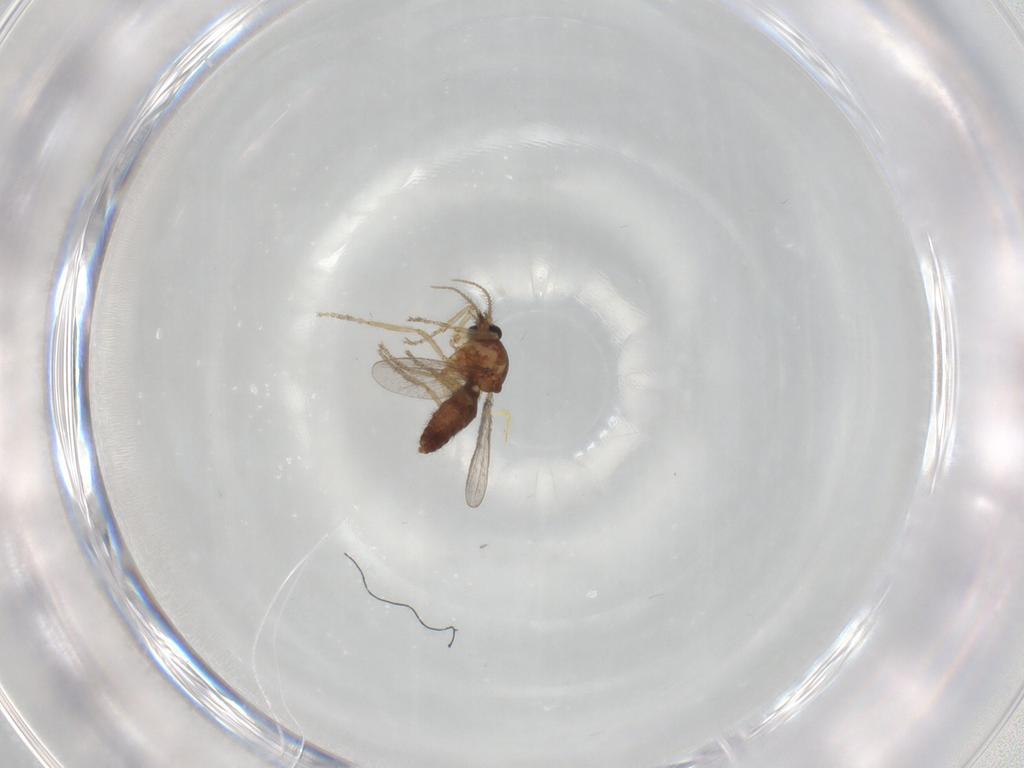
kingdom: Animalia
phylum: Arthropoda
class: Insecta
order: Diptera
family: Ceratopogonidae
